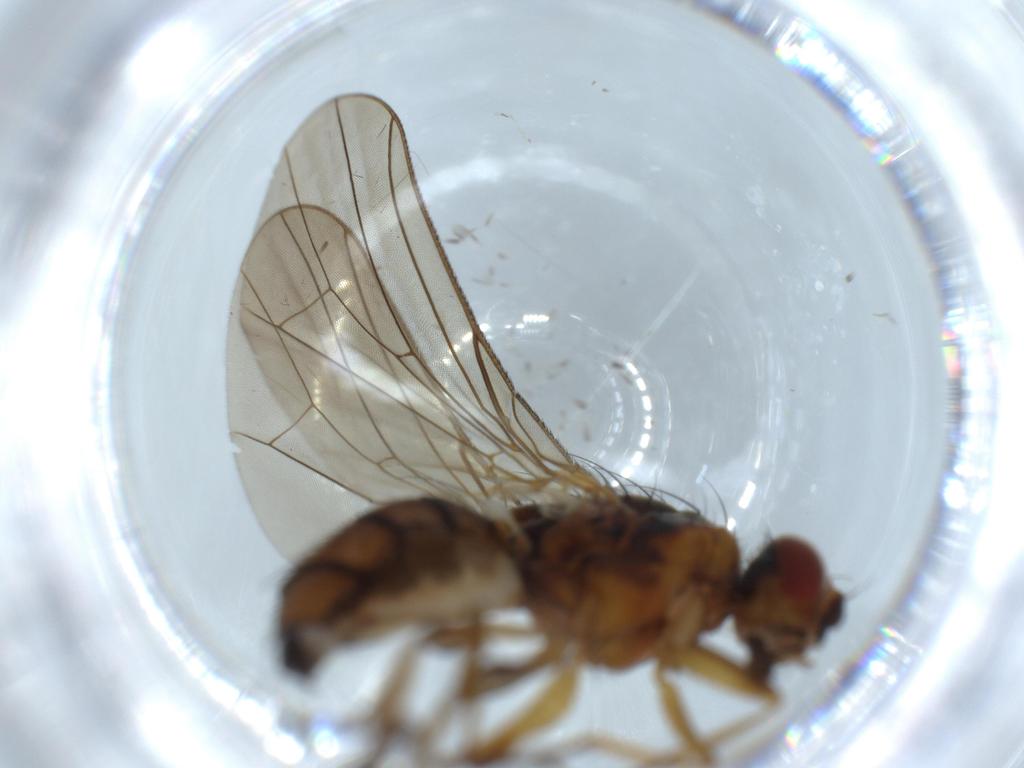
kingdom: Animalia
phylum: Arthropoda
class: Insecta
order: Diptera
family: Anthomyiidae
